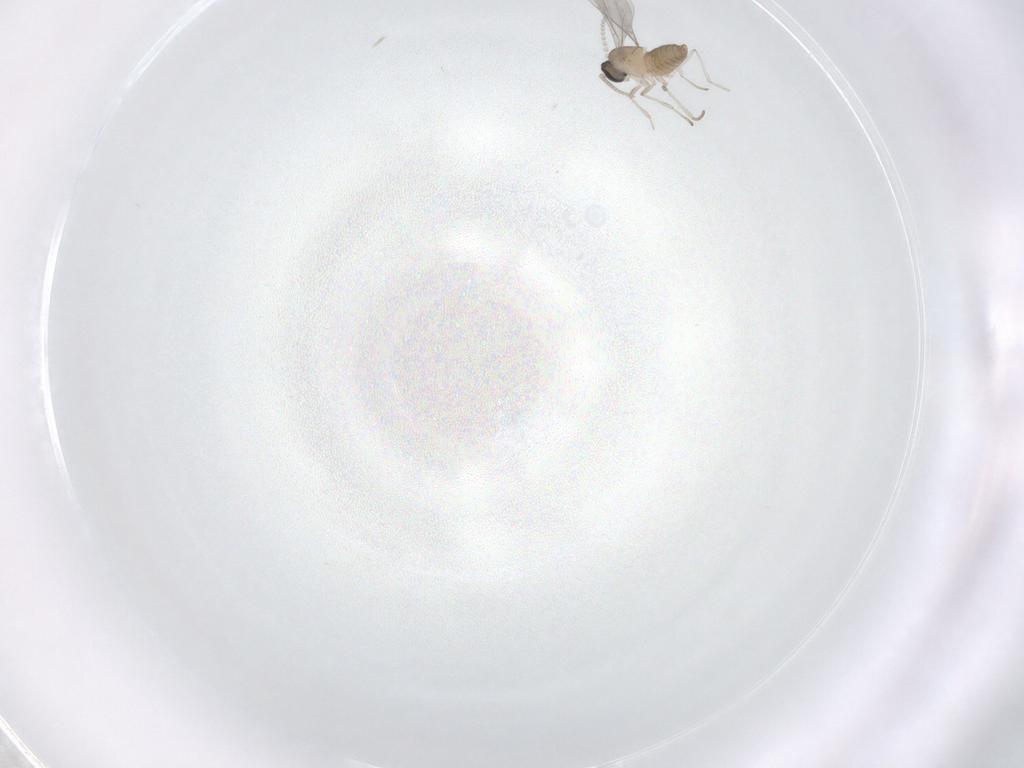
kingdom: Animalia
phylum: Arthropoda
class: Insecta
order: Diptera
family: Cecidomyiidae
